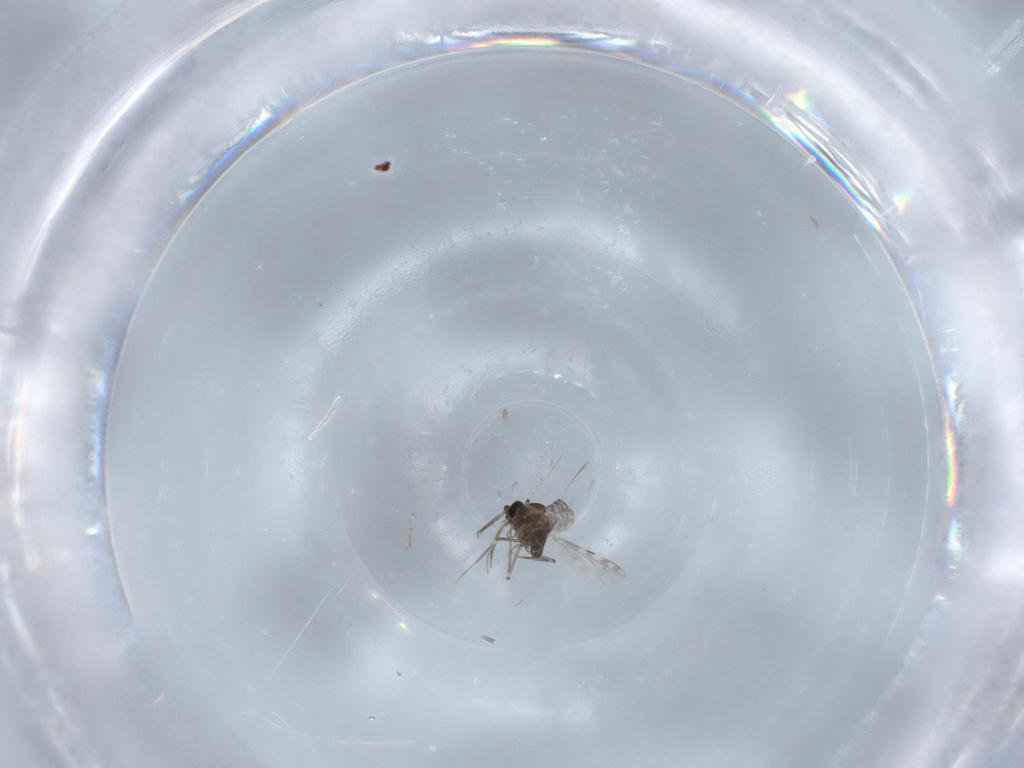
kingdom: Animalia
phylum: Arthropoda
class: Insecta
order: Diptera
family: Ceratopogonidae
